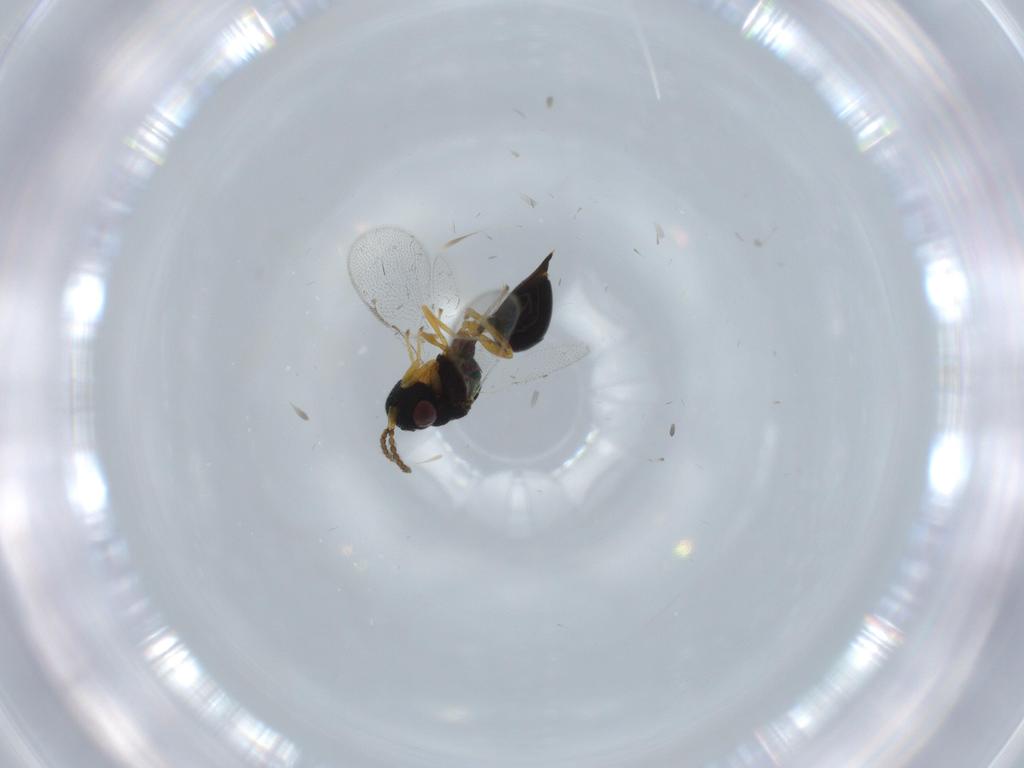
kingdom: Animalia
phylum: Arthropoda
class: Insecta
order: Hymenoptera
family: Eurytomidae
